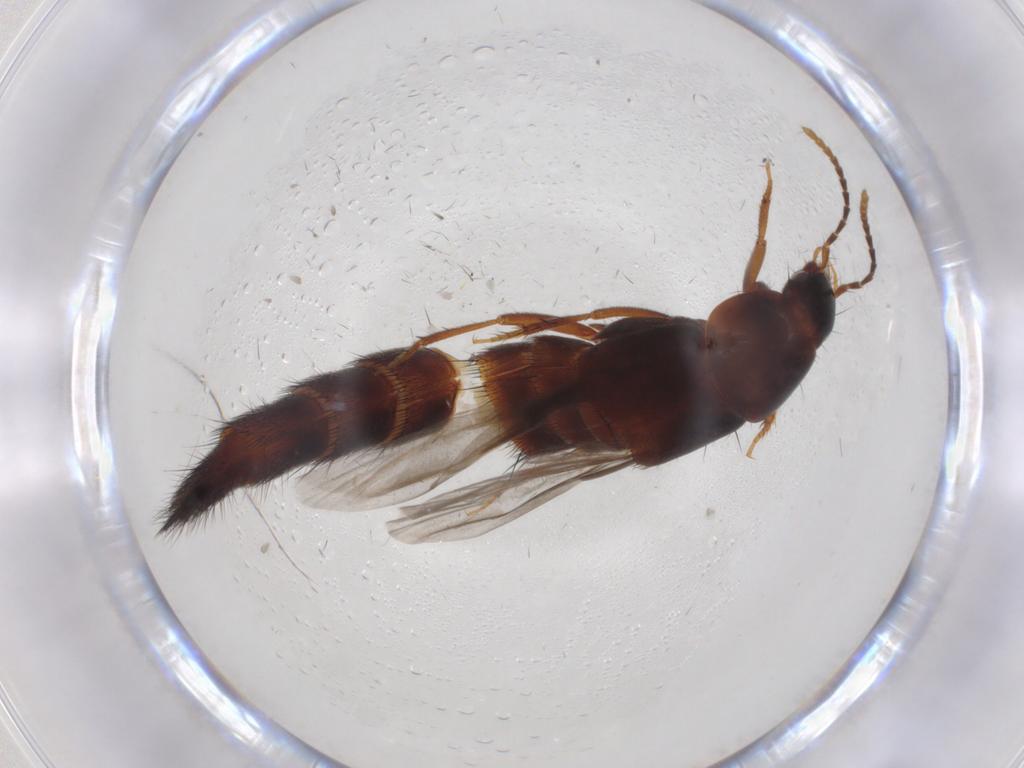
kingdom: Animalia
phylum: Arthropoda
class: Insecta
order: Coleoptera
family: Staphylinidae
